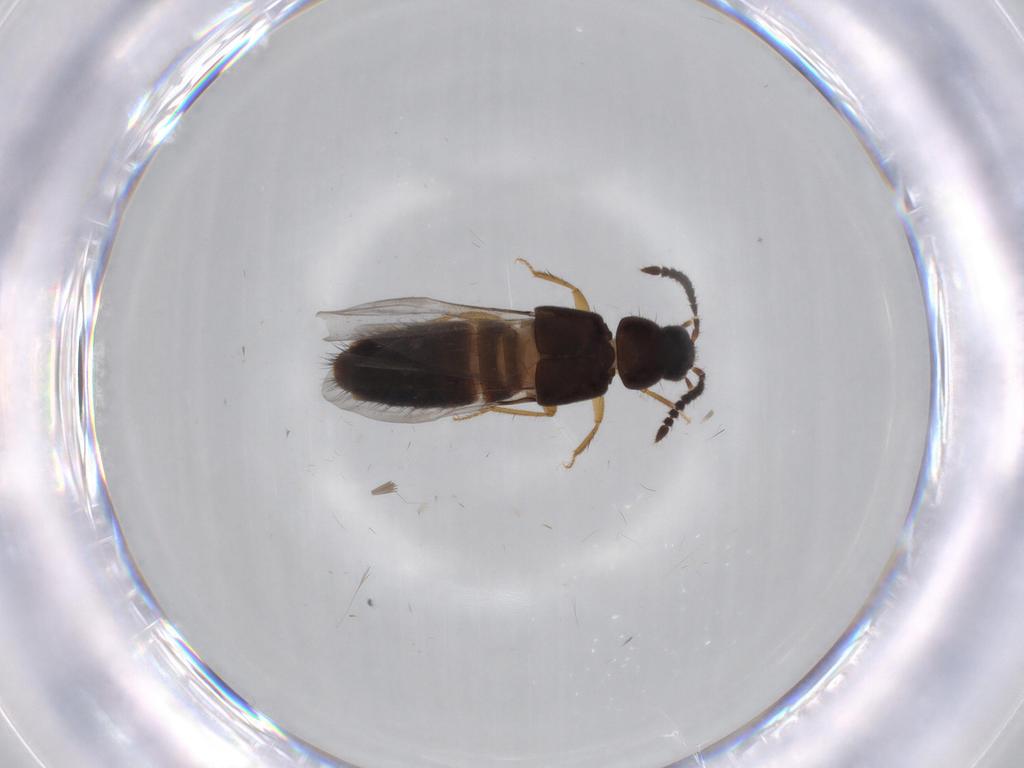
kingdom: Animalia
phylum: Arthropoda
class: Insecta
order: Coleoptera
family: Staphylinidae
